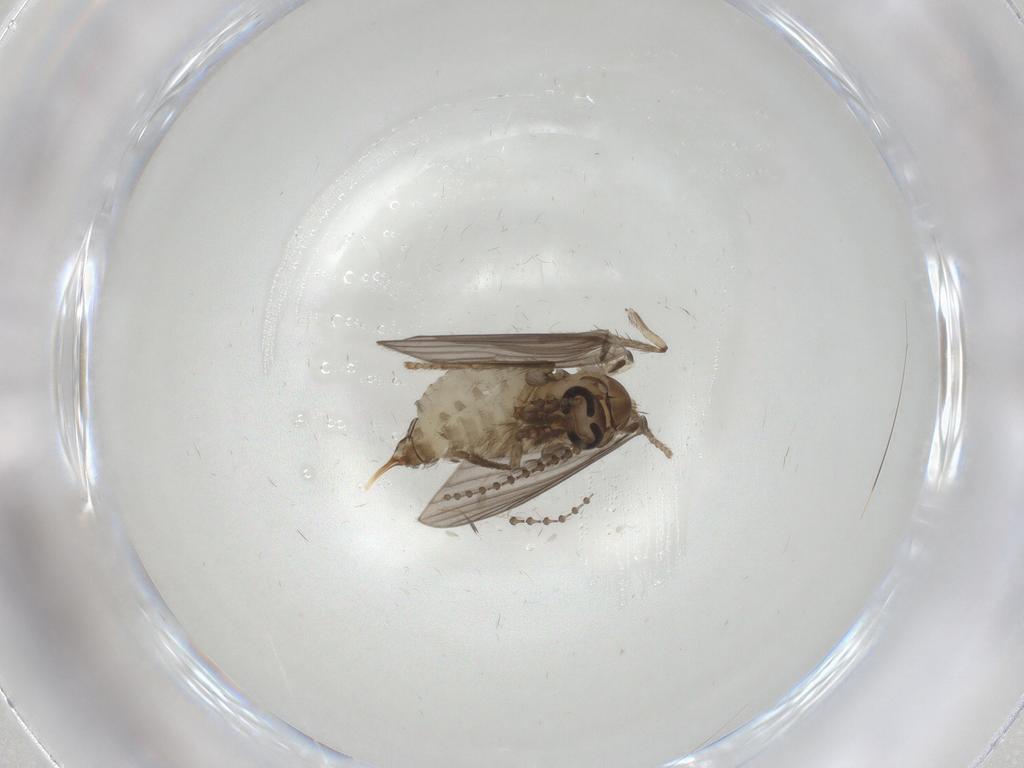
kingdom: Animalia
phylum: Arthropoda
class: Insecta
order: Diptera
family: Psychodidae
